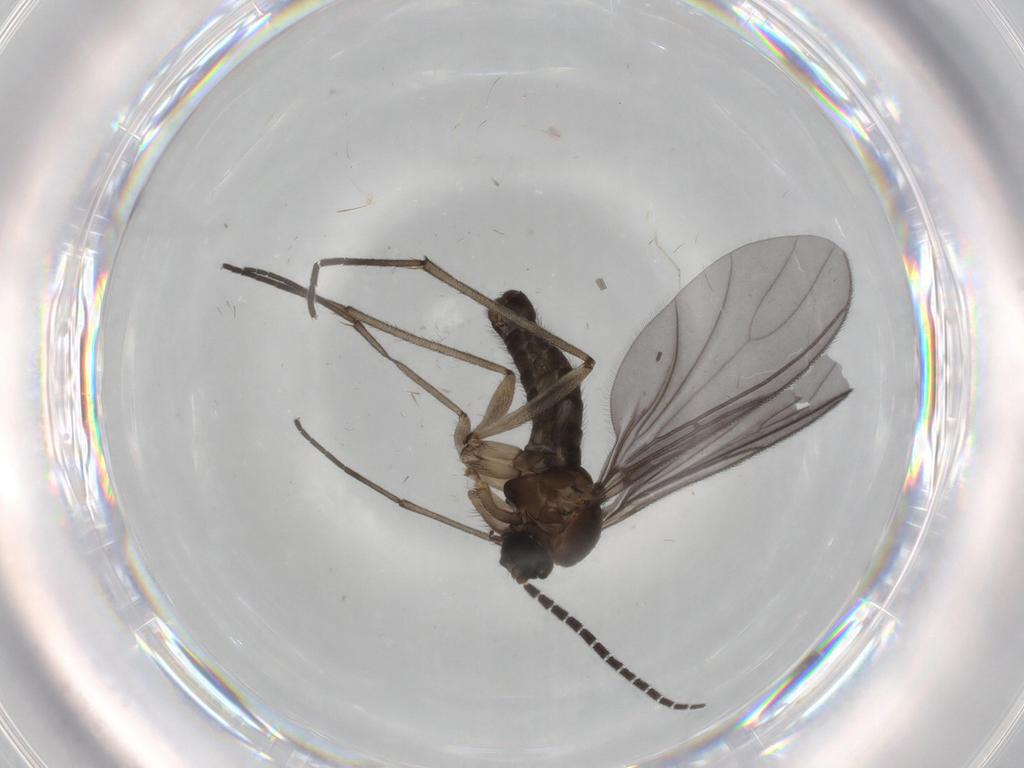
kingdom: Animalia
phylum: Arthropoda
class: Insecta
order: Diptera
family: Sciaridae
